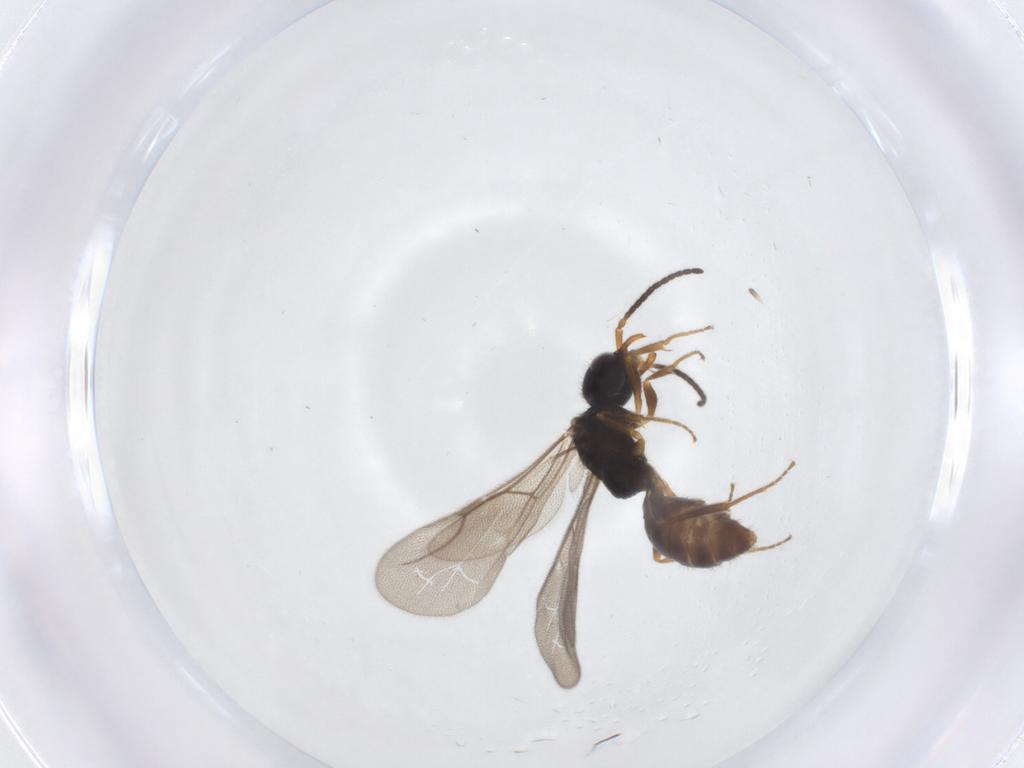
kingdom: Animalia
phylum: Arthropoda
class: Insecta
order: Hymenoptera
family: Bethylidae
